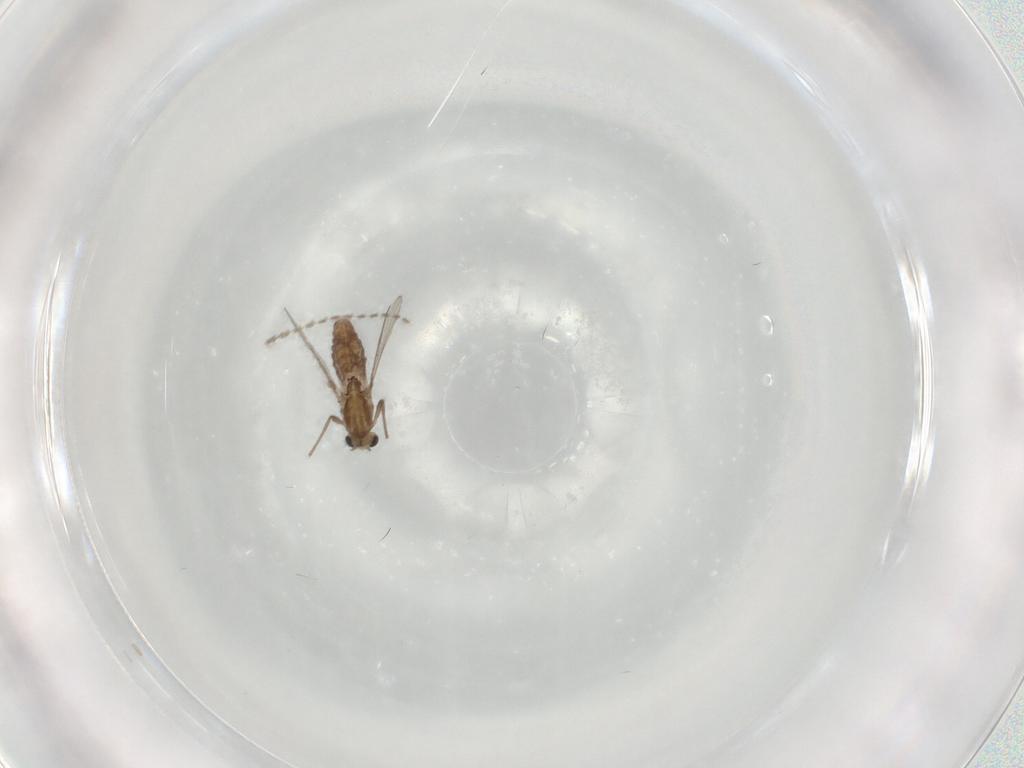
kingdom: Animalia
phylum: Arthropoda
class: Insecta
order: Diptera
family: Chironomidae
